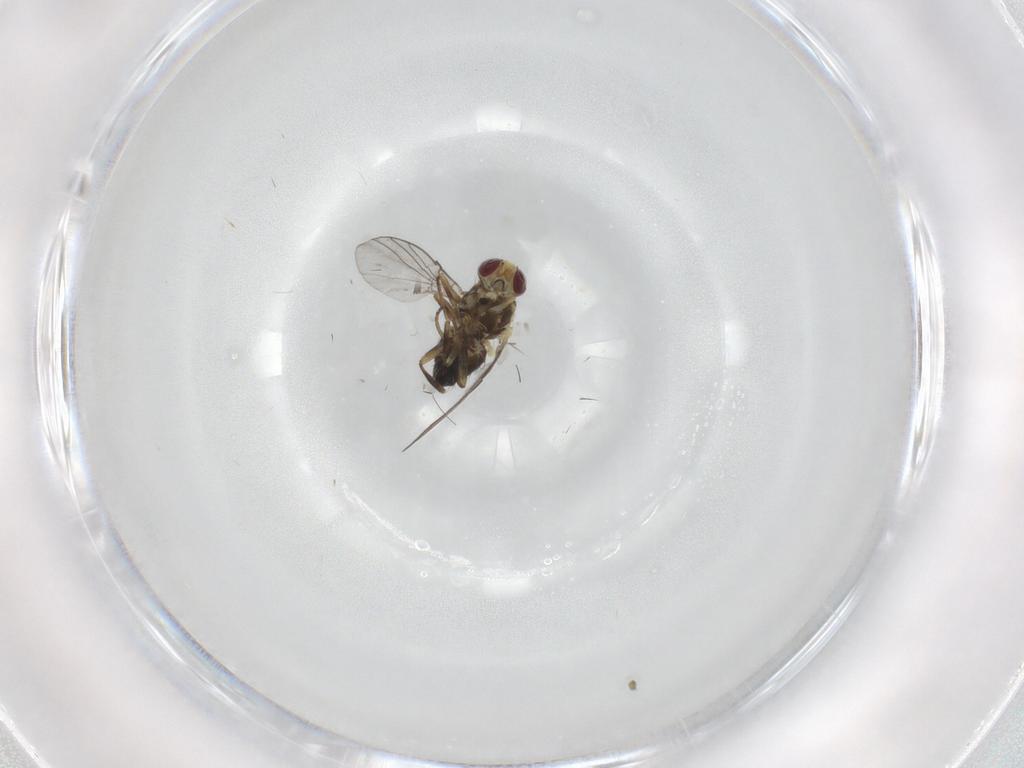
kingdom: Animalia
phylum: Arthropoda
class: Insecta
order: Diptera
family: Agromyzidae
